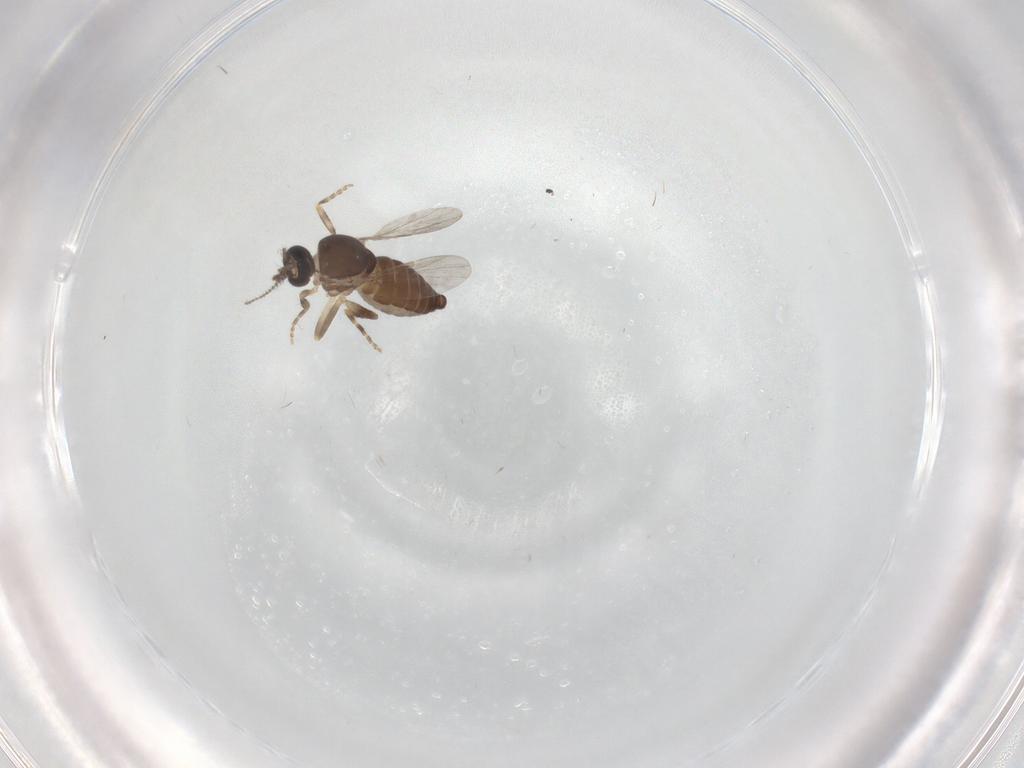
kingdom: Animalia
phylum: Arthropoda
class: Insecta
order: Diptera
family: Ceratopogonidae
